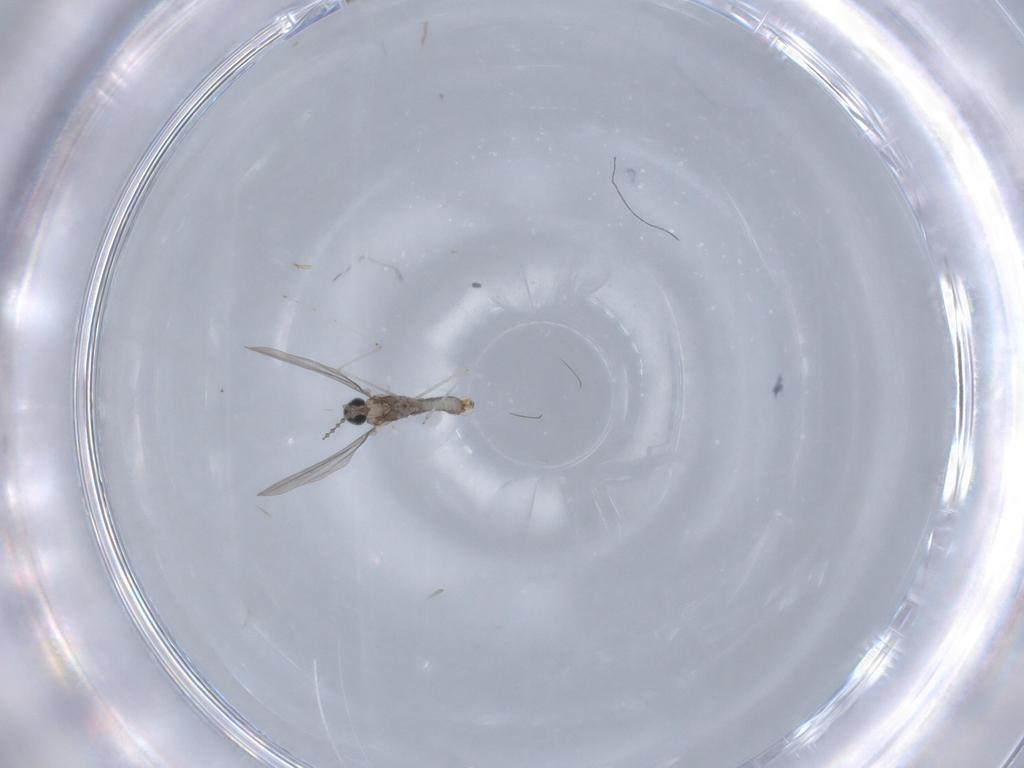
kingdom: Animalia
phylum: Arthropoda
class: Insecta
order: Diptera
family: Cecidomyiidae
